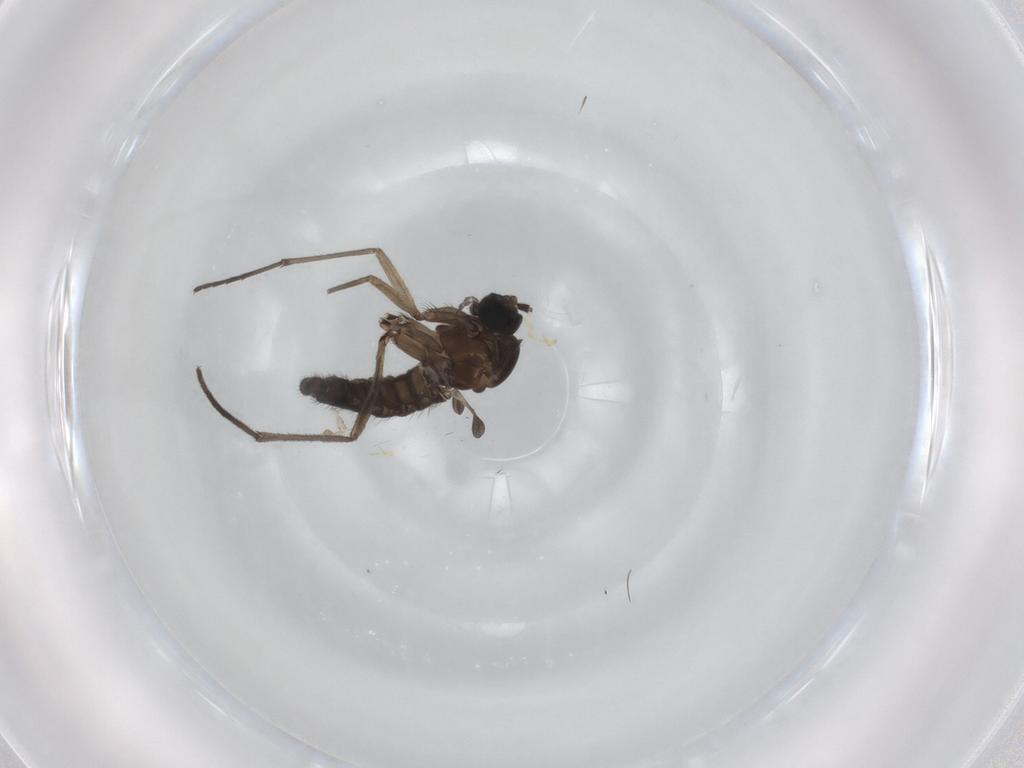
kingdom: Animalia
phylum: Arthropoda
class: Insecta
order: Diptera
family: Sciaridae
